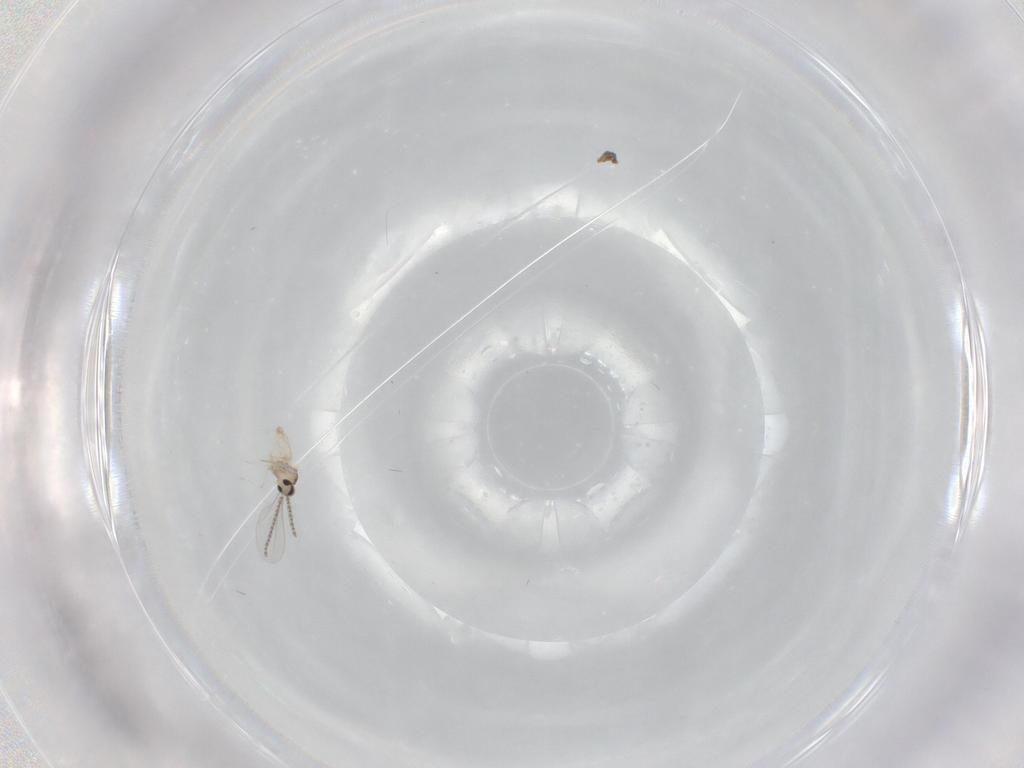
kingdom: Animalia
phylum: Arthropoda
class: Insecta
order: Diptera
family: Cecidomyiidae
